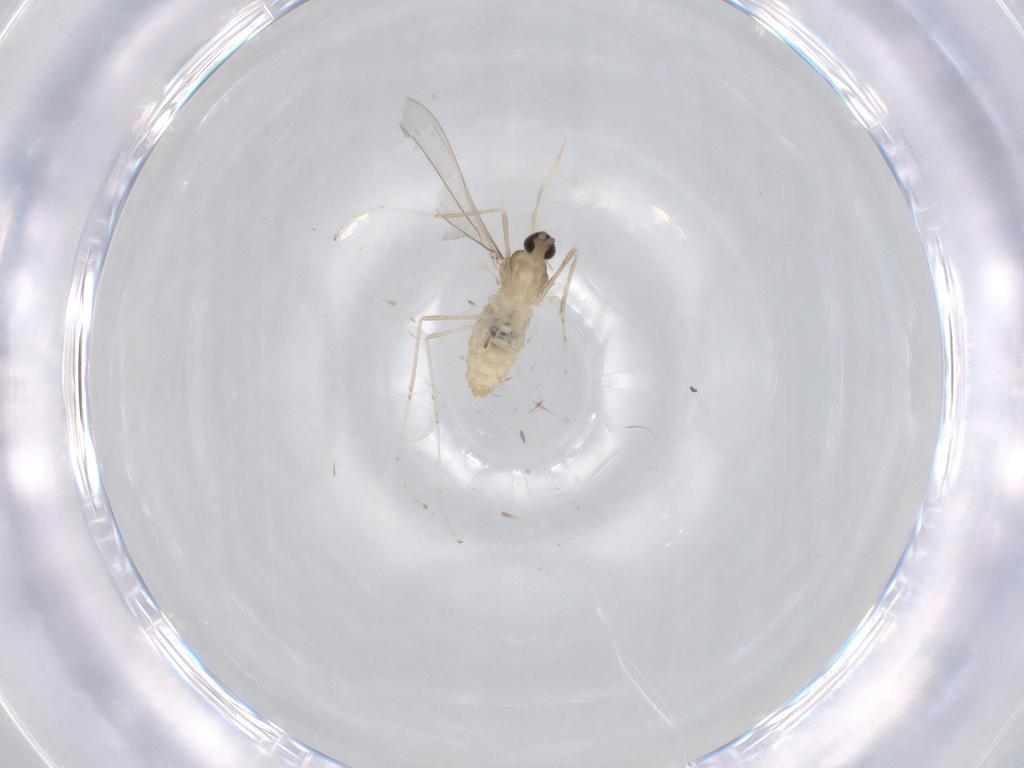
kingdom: Animalia
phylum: Arthropoda
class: Insecta
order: Diptera
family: Cecidomyiidae
